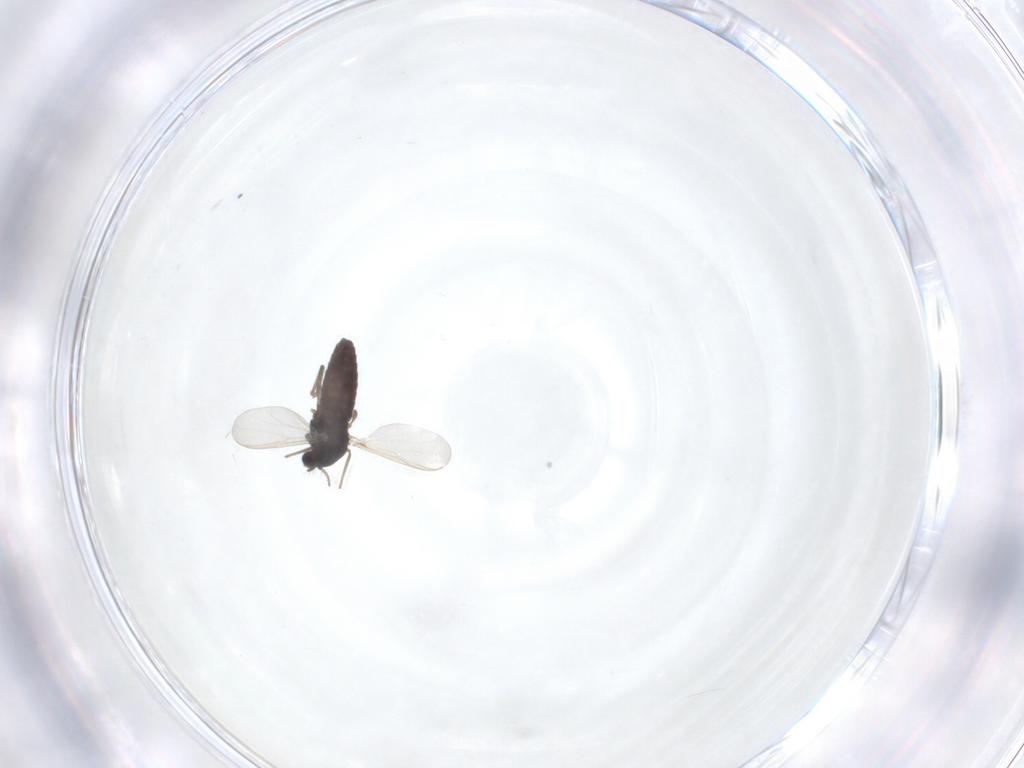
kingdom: Animalia
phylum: Arthropoda
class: Insecta
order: Diptera
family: Chironomidae
